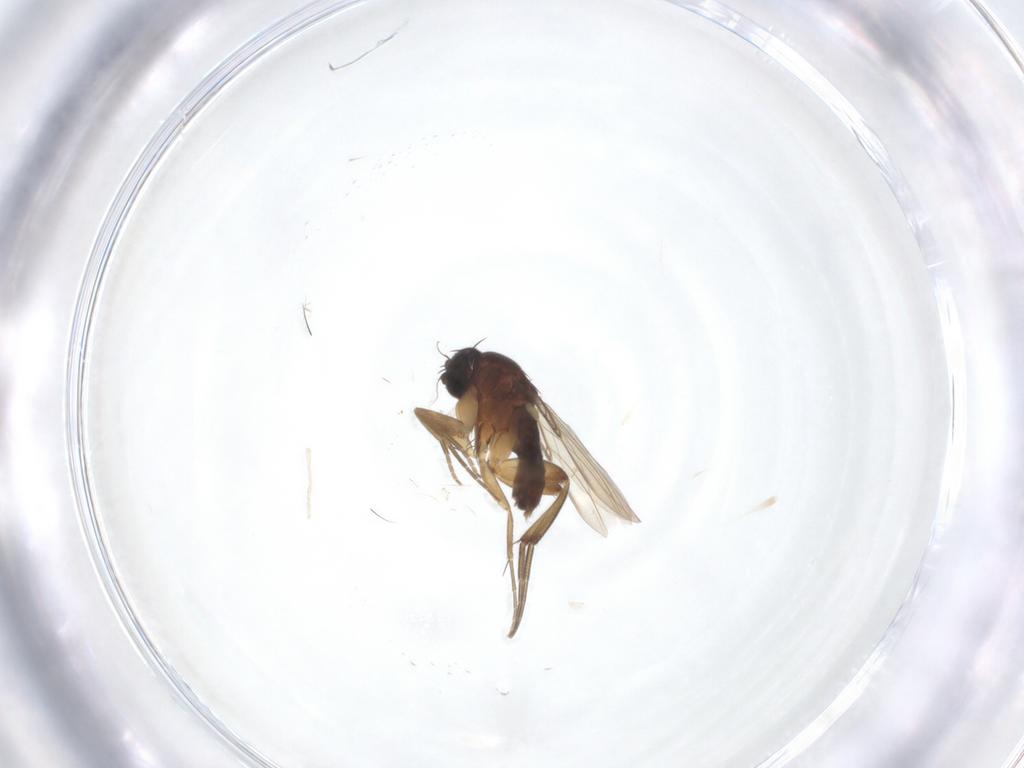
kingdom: Animalia
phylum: Arthropoda
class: Insecta
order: Diptera
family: Phoridae
